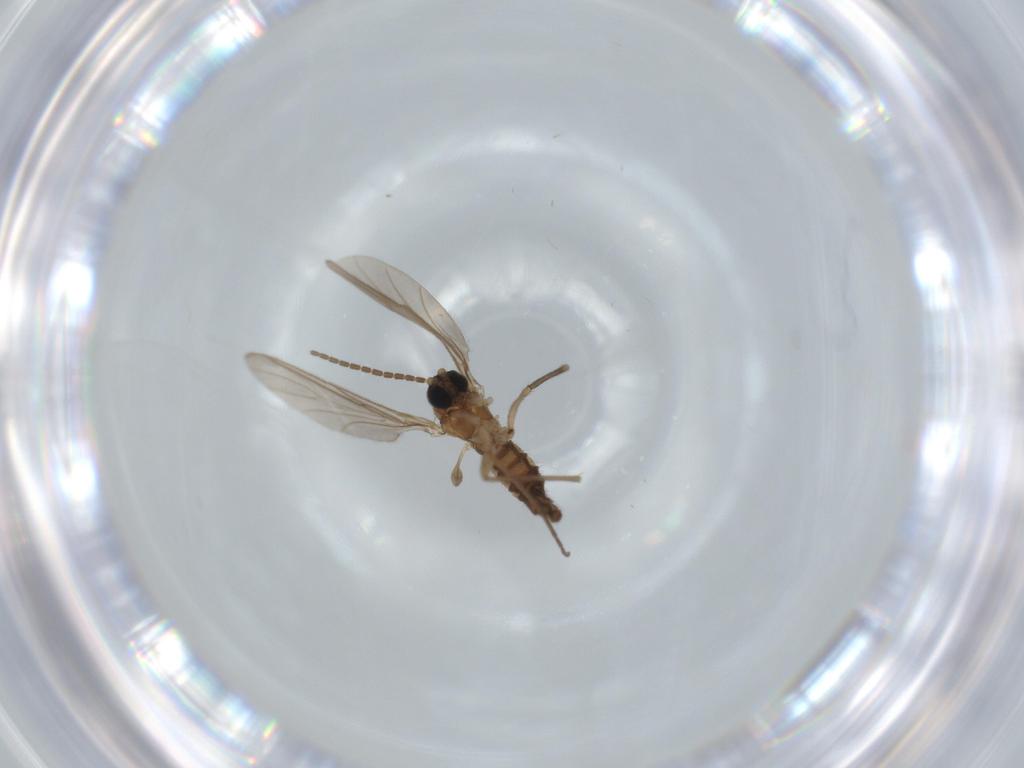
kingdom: Animalia
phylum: Arthropoda
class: Insecta
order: Diptera
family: Sciaridae
